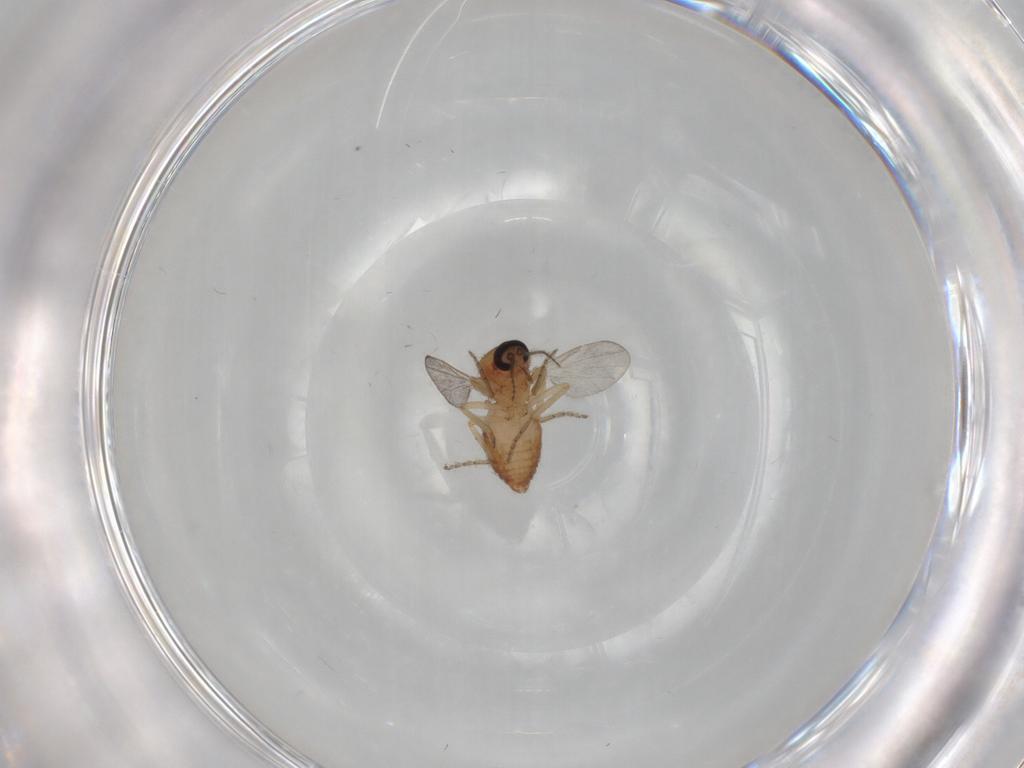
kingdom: Animalia
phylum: Arthropoda
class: Insecta
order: Diptera
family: Ceratopogonidae
